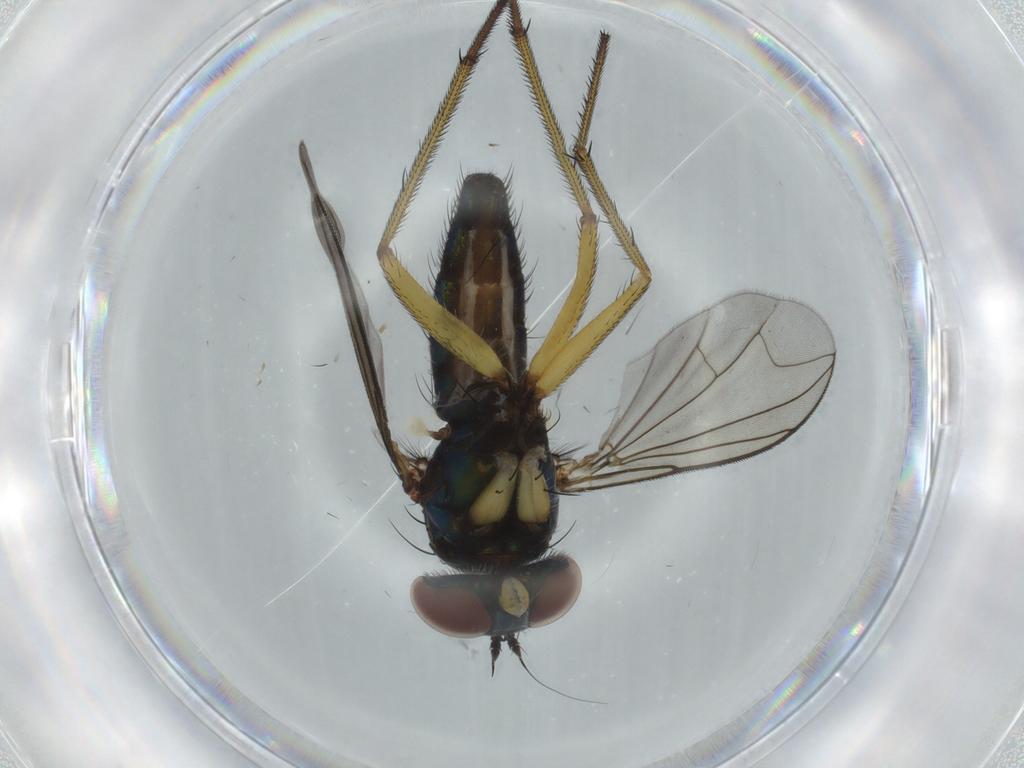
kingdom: Animalia
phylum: Arthropoda
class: Insecta
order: Diptera
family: Dolichopodidae
